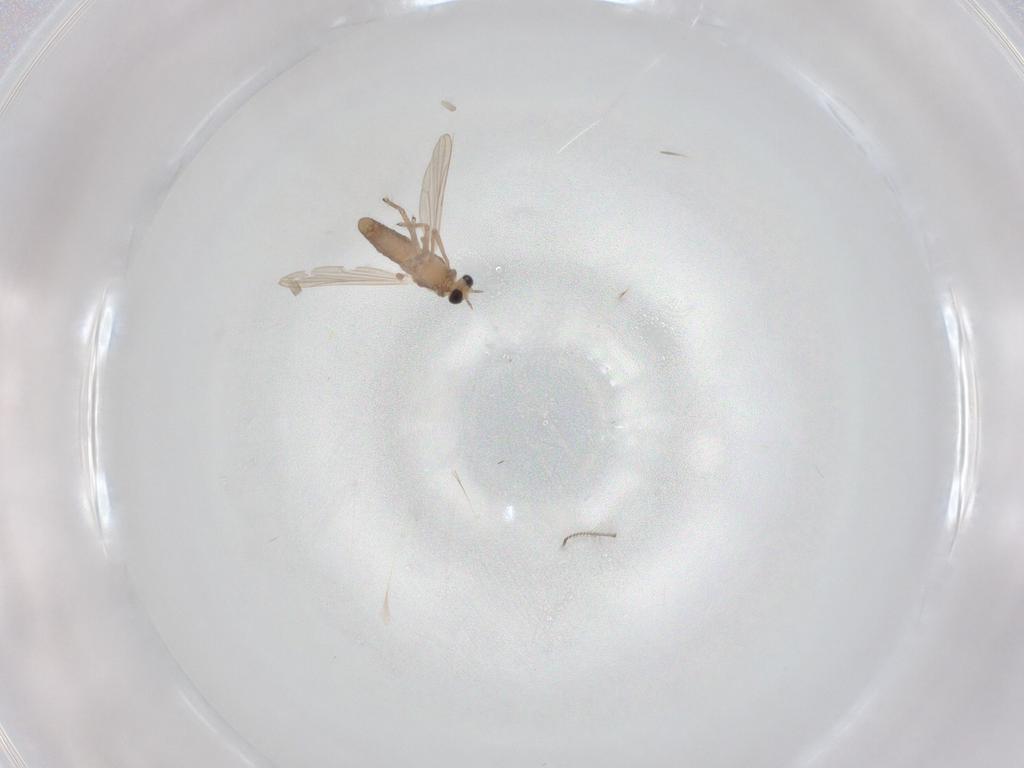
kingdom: Animalia
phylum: Arthropoda
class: Insecta
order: Diptera
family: Chironomidae
